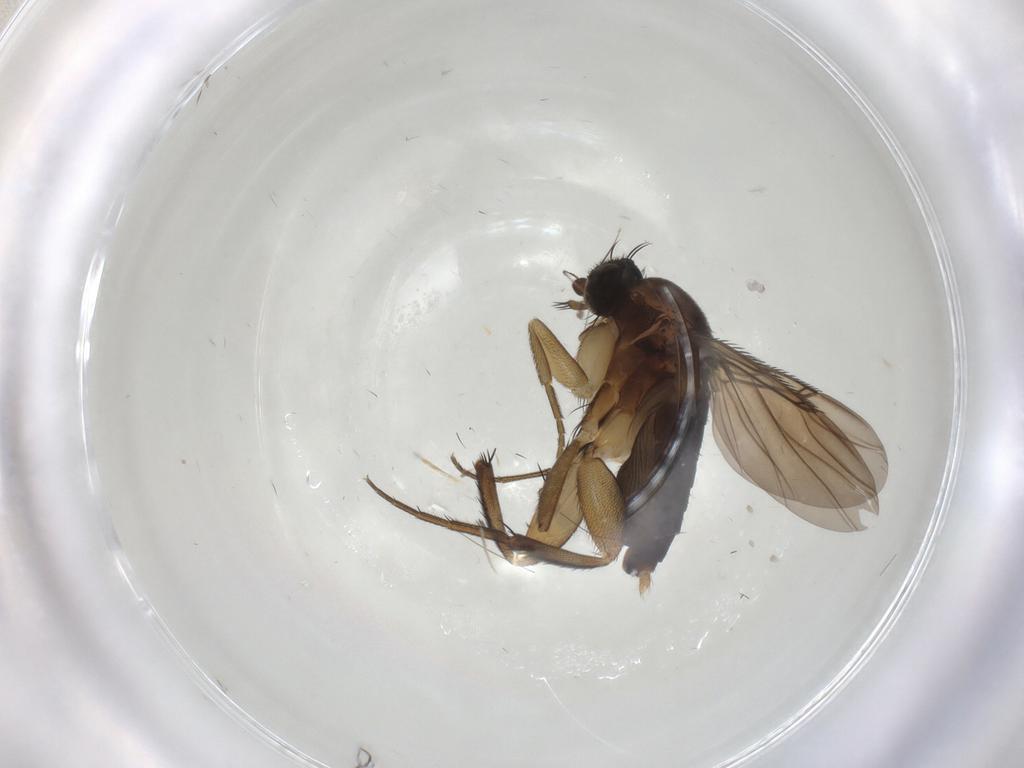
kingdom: Animalia
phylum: Arthropoda
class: Insecta
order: Diptera
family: Phoridae
